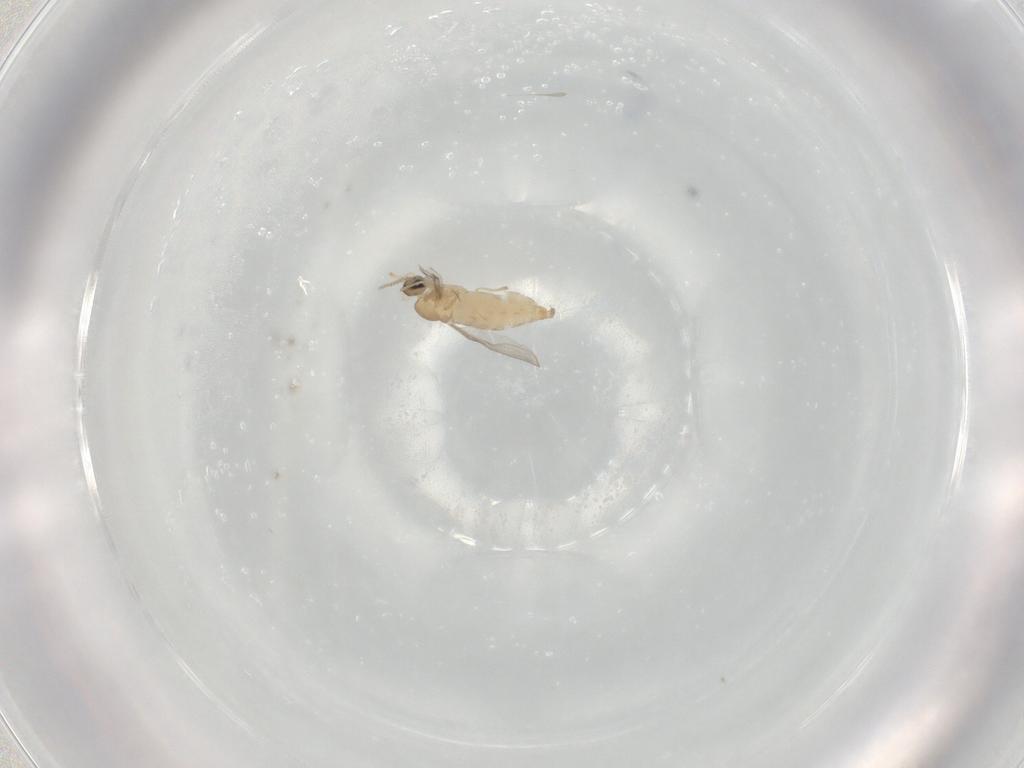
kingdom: Animalia
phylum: Arthropoda
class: Insecta
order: Diptera
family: Cecidomyiidae
